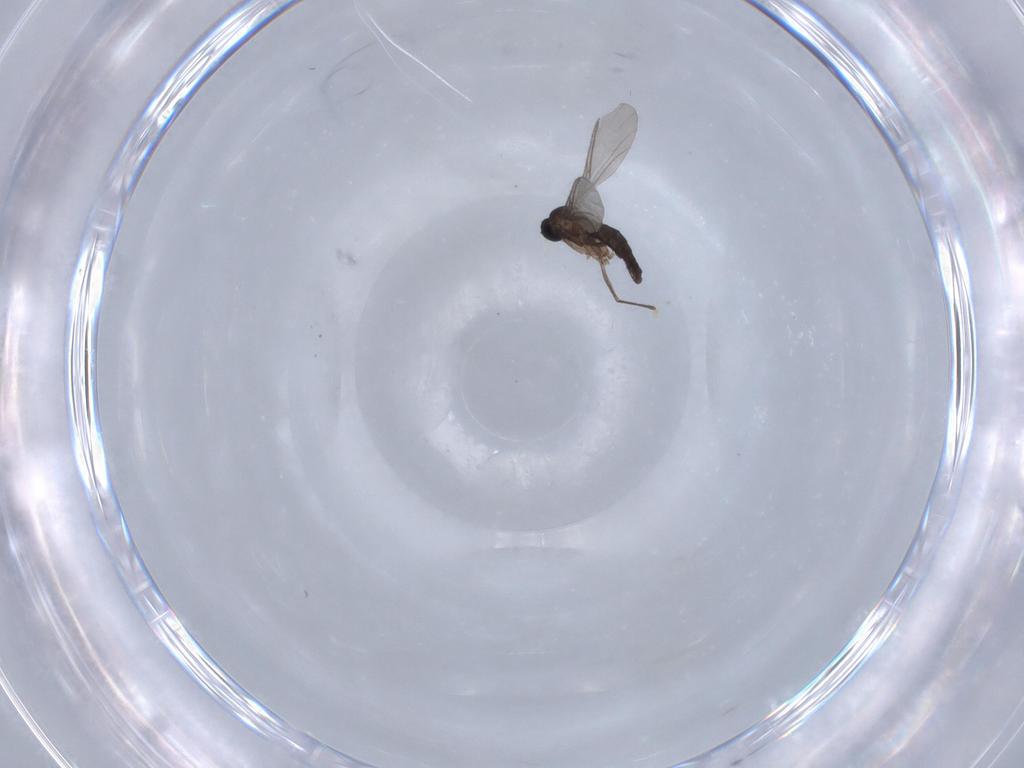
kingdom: Animalia
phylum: Arthropoda
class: Insecta
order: Diptera
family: Sciaridae
